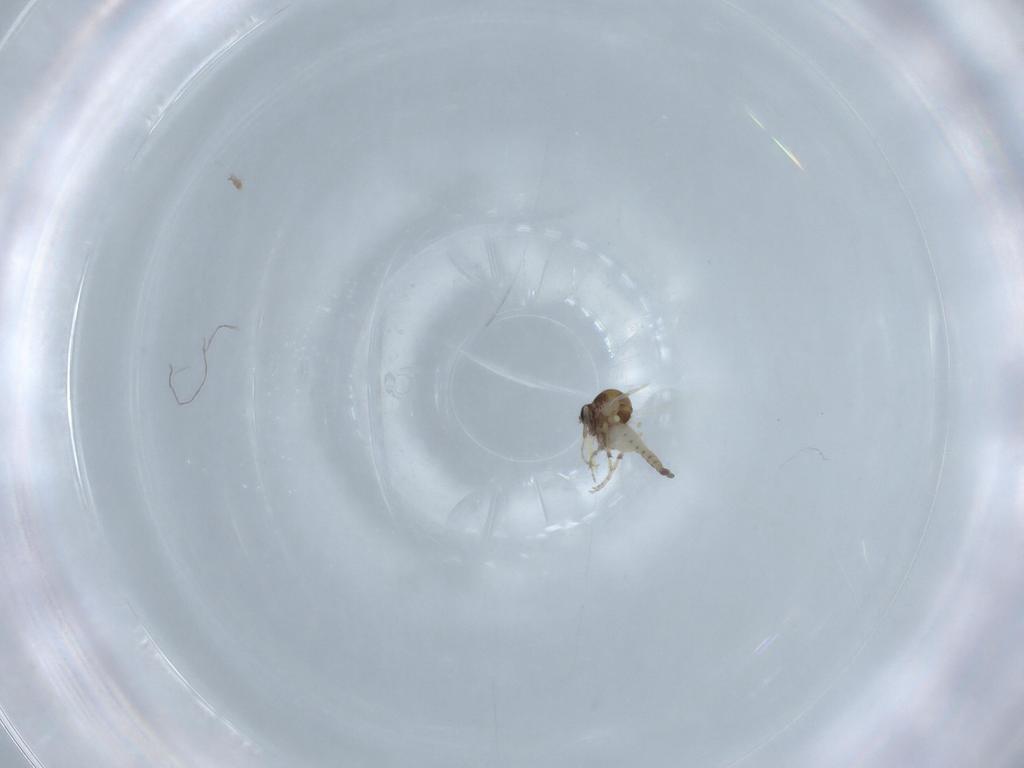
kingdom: Animalia
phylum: Arthropoda
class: Insecta
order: Diptera
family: Ceratopogonidae
